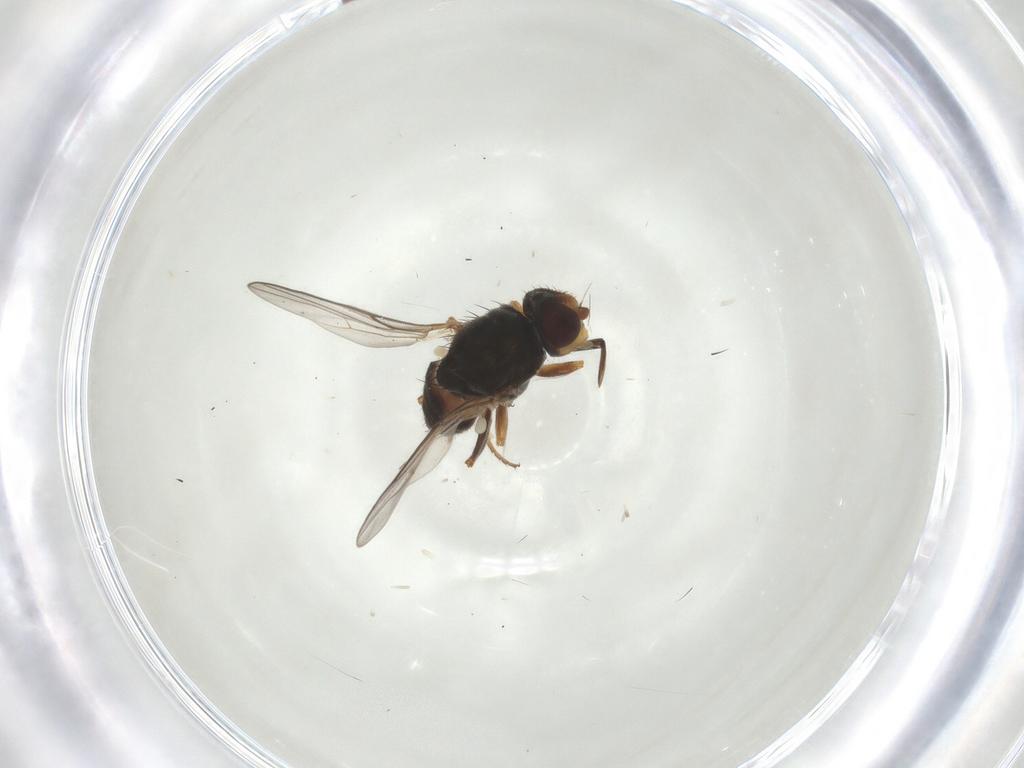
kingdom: Animalia
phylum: Arthropoda
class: Insecta
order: Diptera
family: Chloropidae
